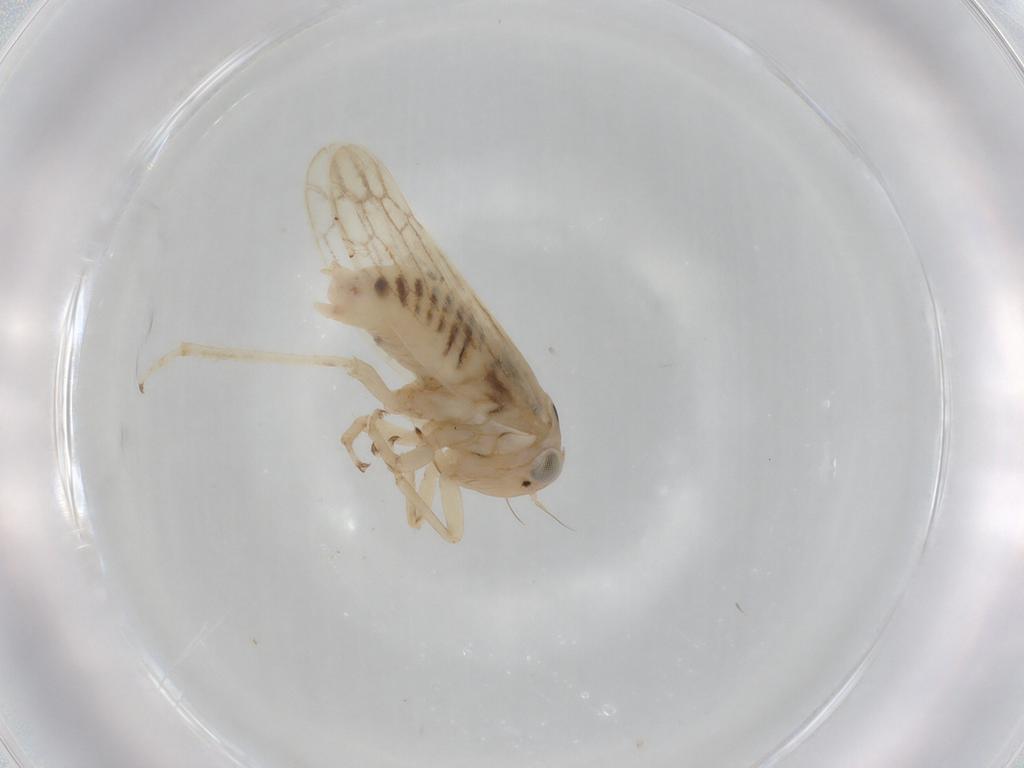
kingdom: Animalia
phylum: Arthropoda
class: Insecta
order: Hemiptera
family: Cicadellidae
